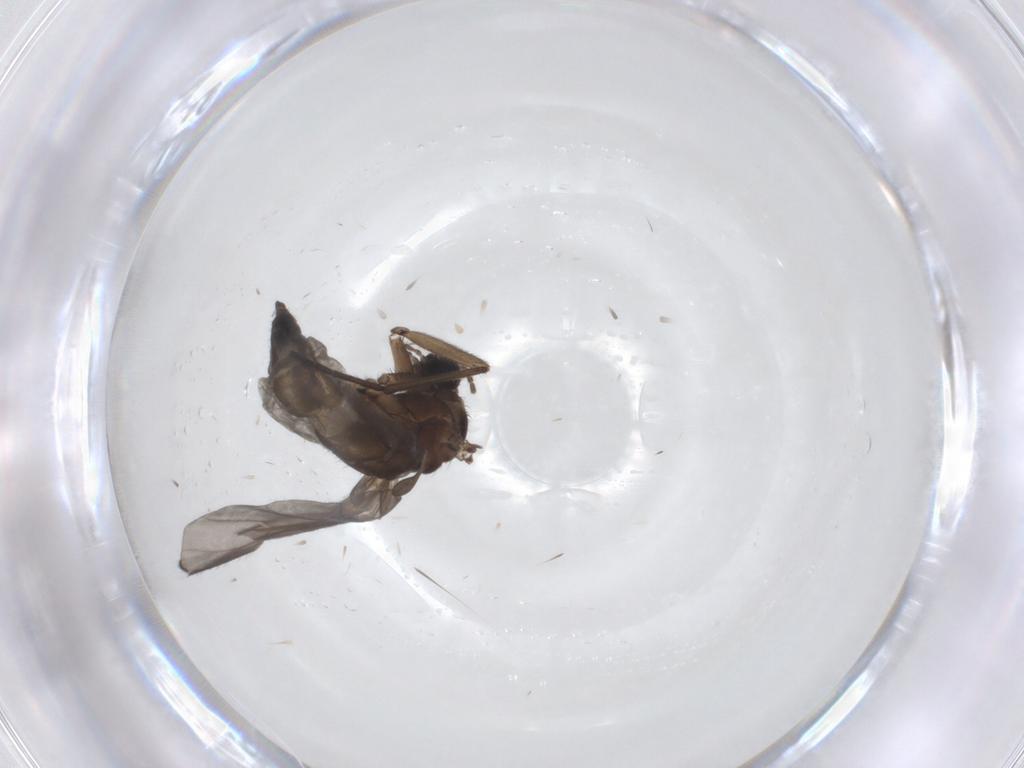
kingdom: Animalia
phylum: Arthropoda
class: Insecta
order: Diptera
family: Sciaridae
